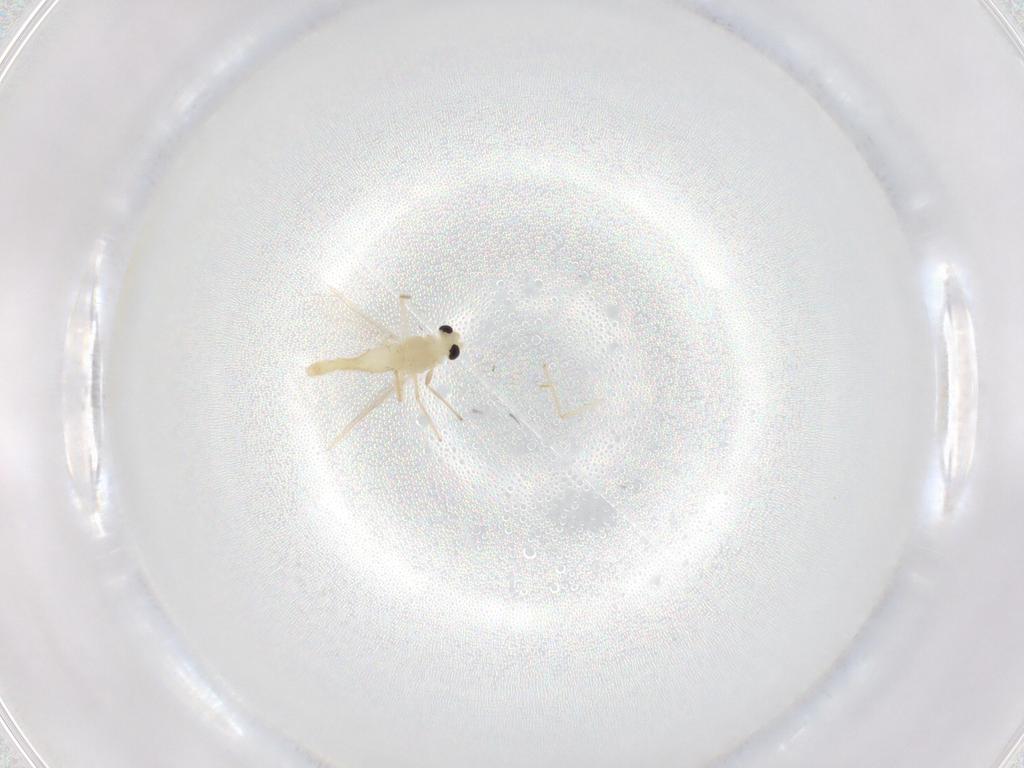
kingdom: Animalia
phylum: Arthropoda
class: Insecta
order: Diptera
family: Chironomidae
